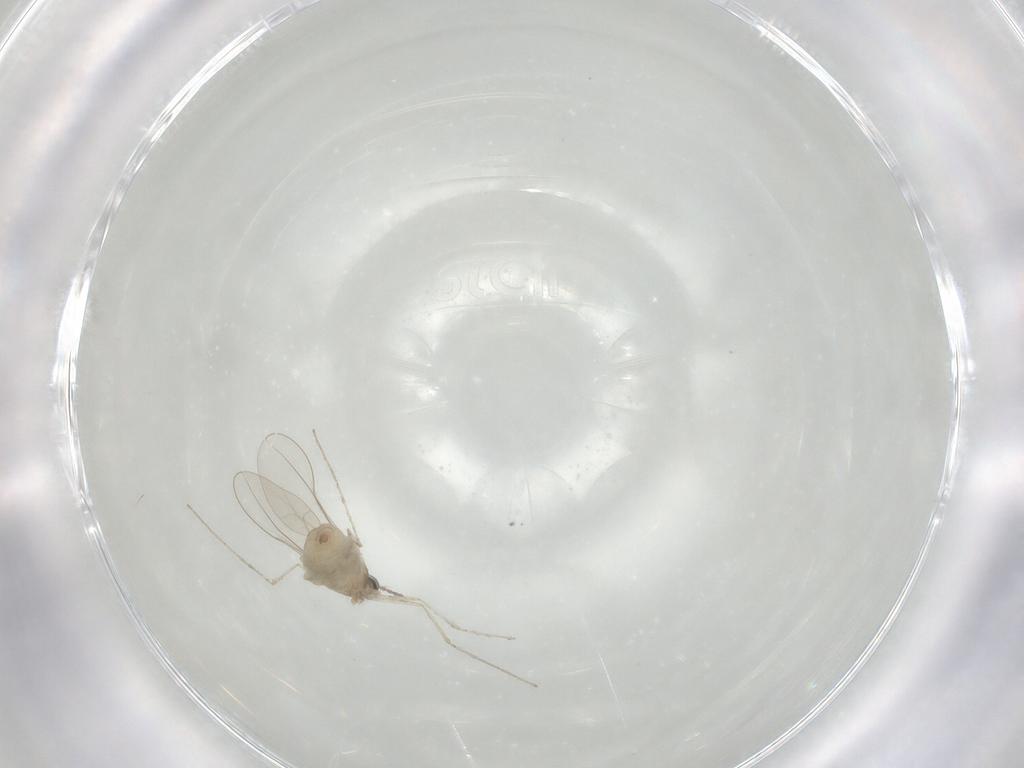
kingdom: Animalia
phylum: Arthropoda
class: Insecta
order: Diptera
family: Cecidomyiidae
